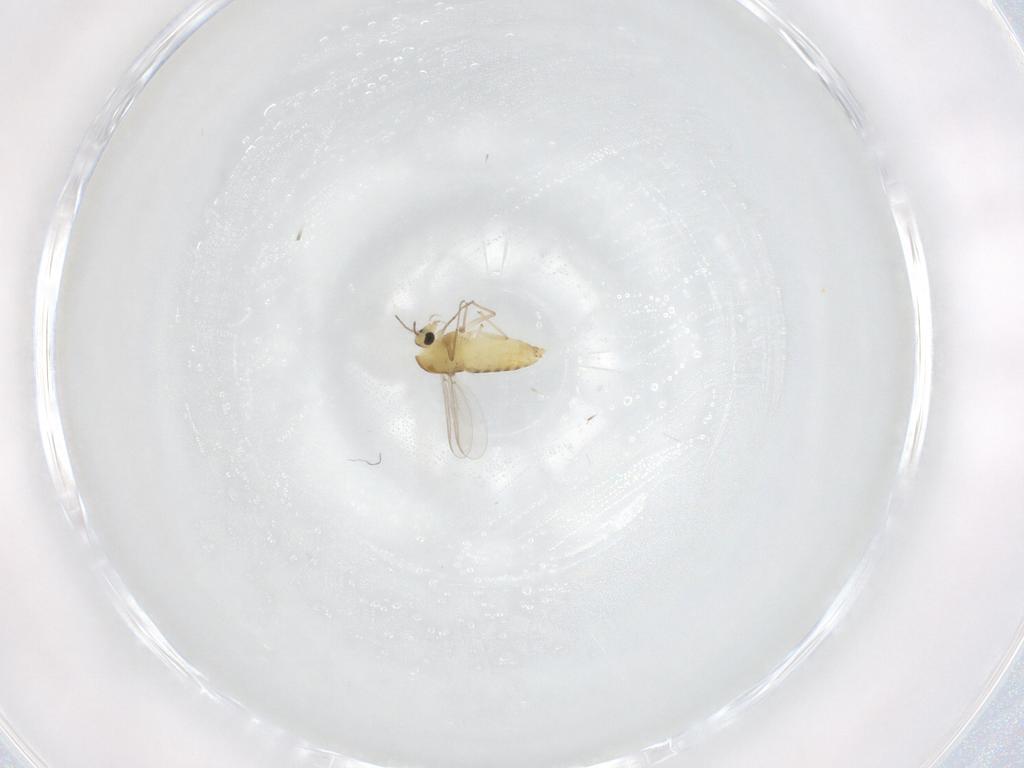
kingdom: Animalia
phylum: Arthropoda
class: Insecta
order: Diptera
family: Chironomidae
